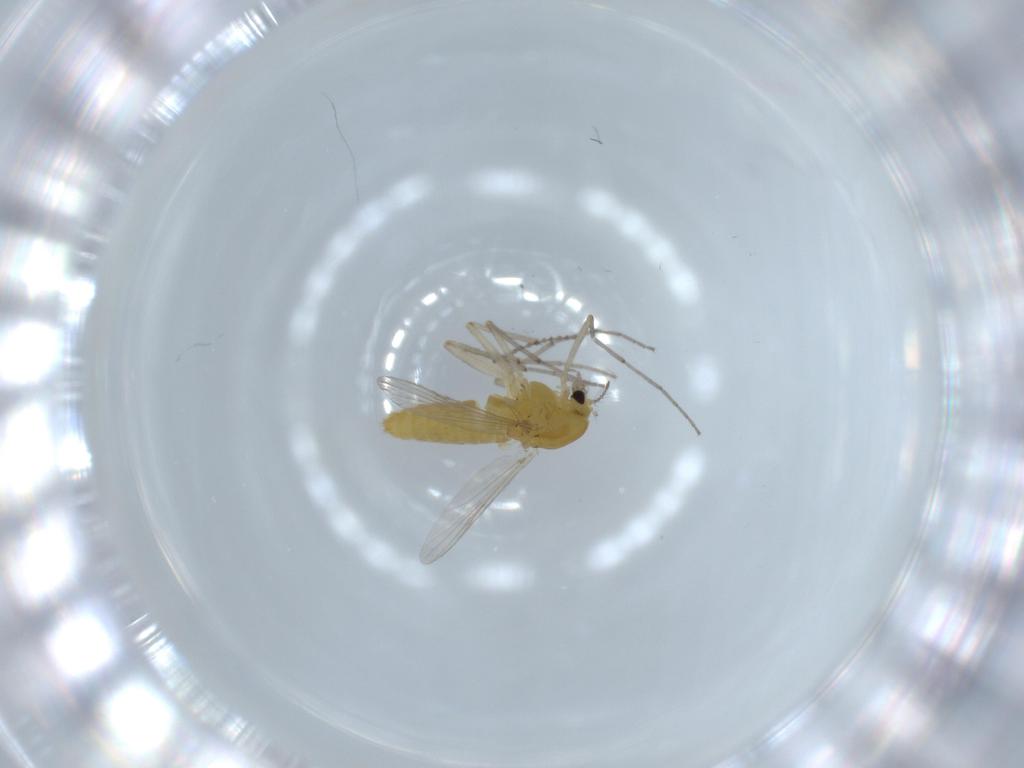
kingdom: Animalia
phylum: Arthropoda
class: Insecta
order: Diptera
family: Chironomidae
